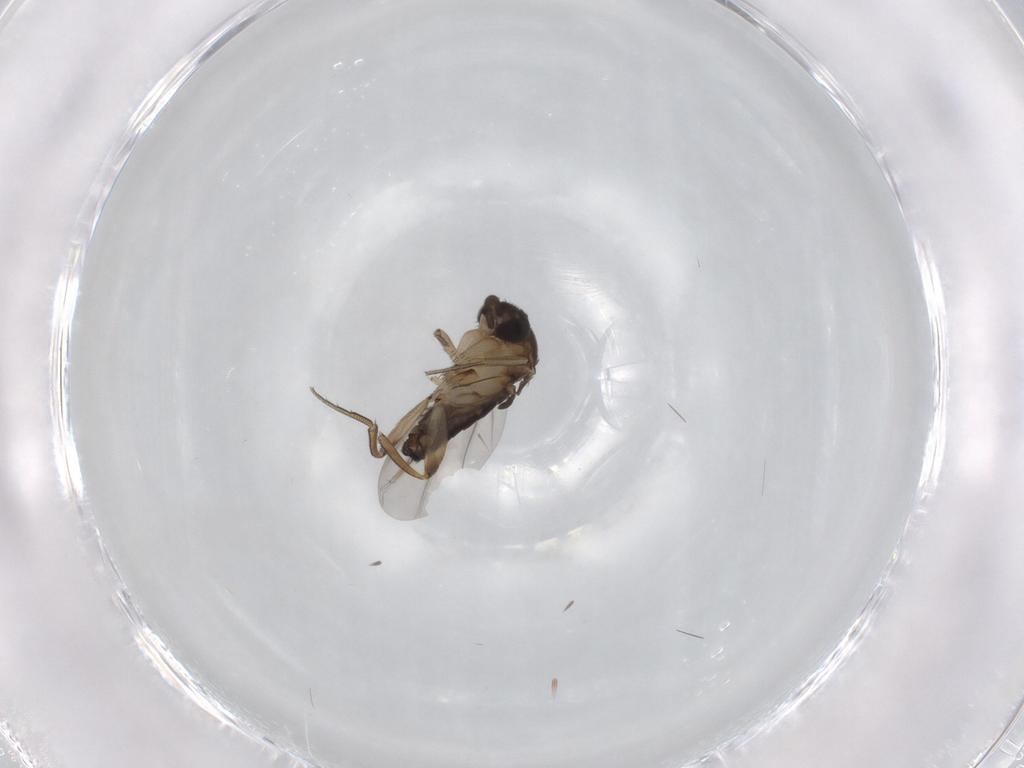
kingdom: Animalia
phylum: Arthropoda
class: Insecta
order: Diptera
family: Phoridae
